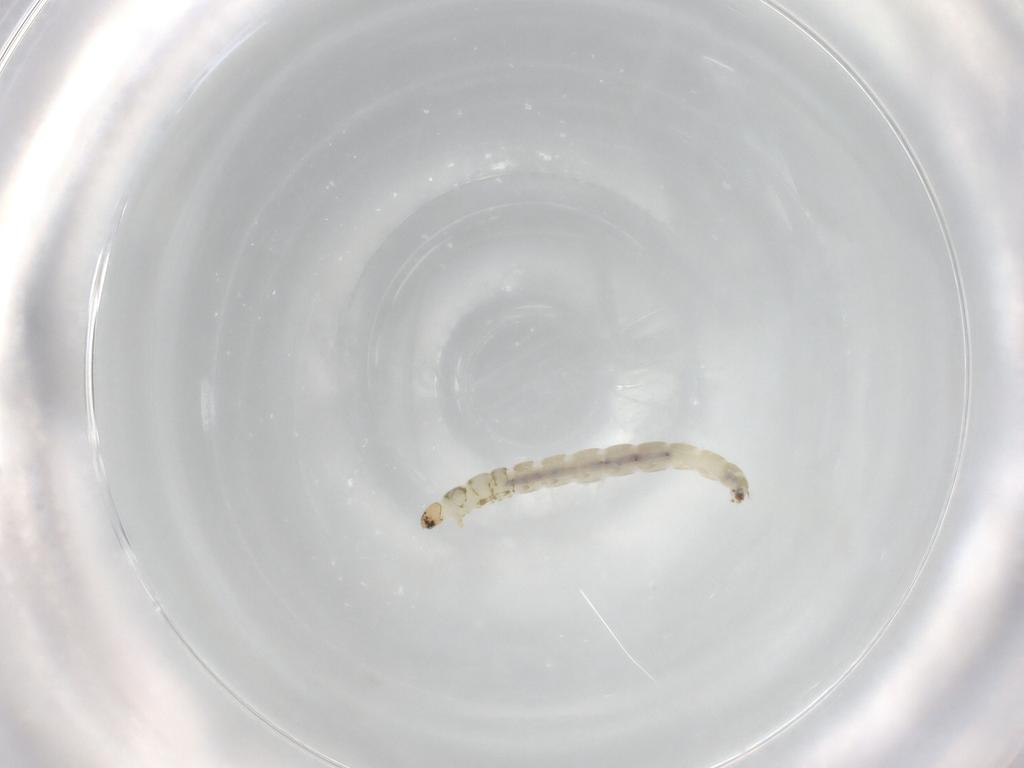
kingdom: Animalia
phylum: Arthropoda
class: Insecta
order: Diptera
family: Chironomidae
